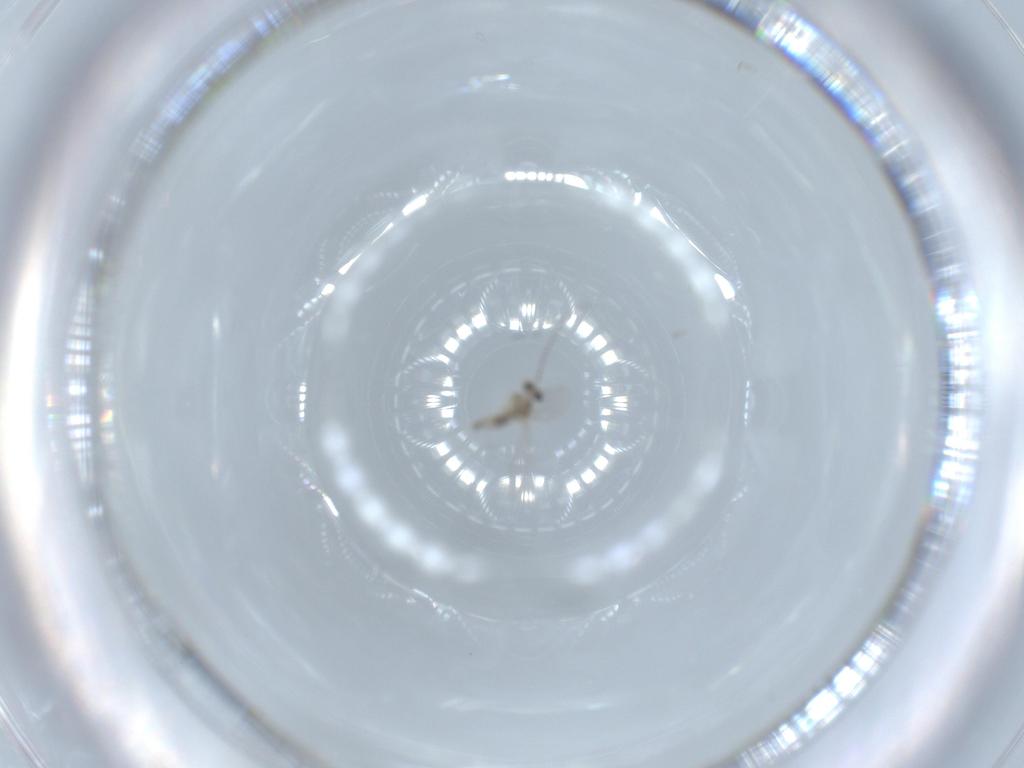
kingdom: Animalia
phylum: Arthropoda
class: Insecta
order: Diptera
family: Cecidomyiidae
